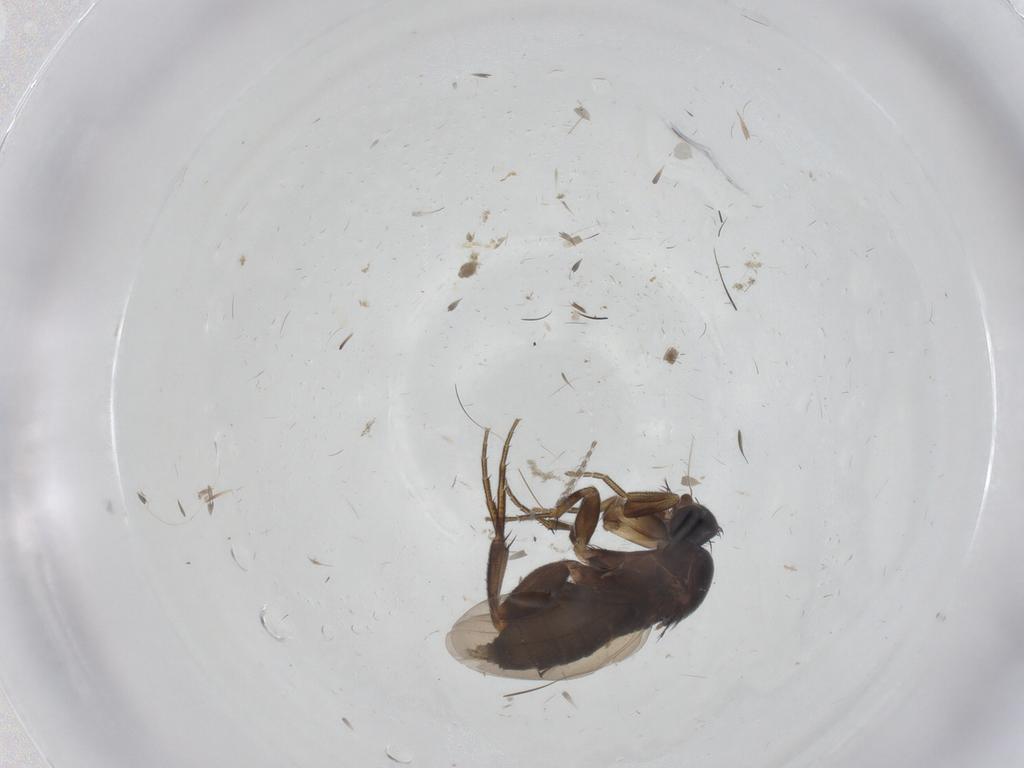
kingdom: Animalia
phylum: Arthropoda
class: Insecta
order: Diptera
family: Phoridae
